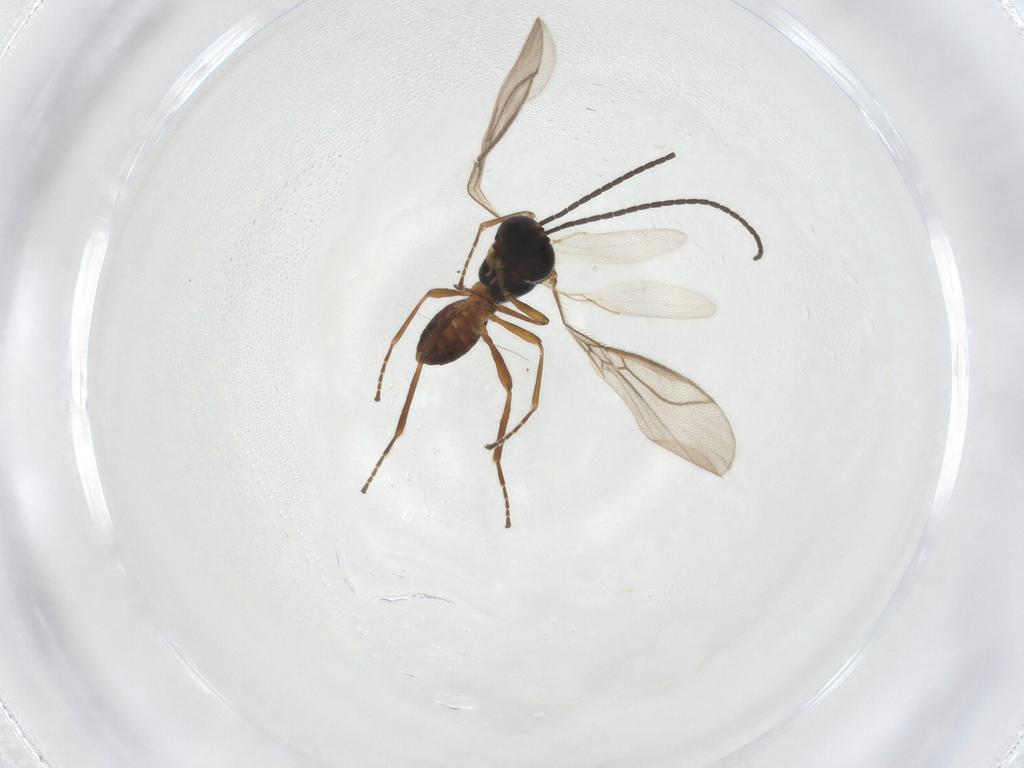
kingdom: Animalia
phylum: Arthropoda
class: Insecta
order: Hymenoptera
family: Braconidae
